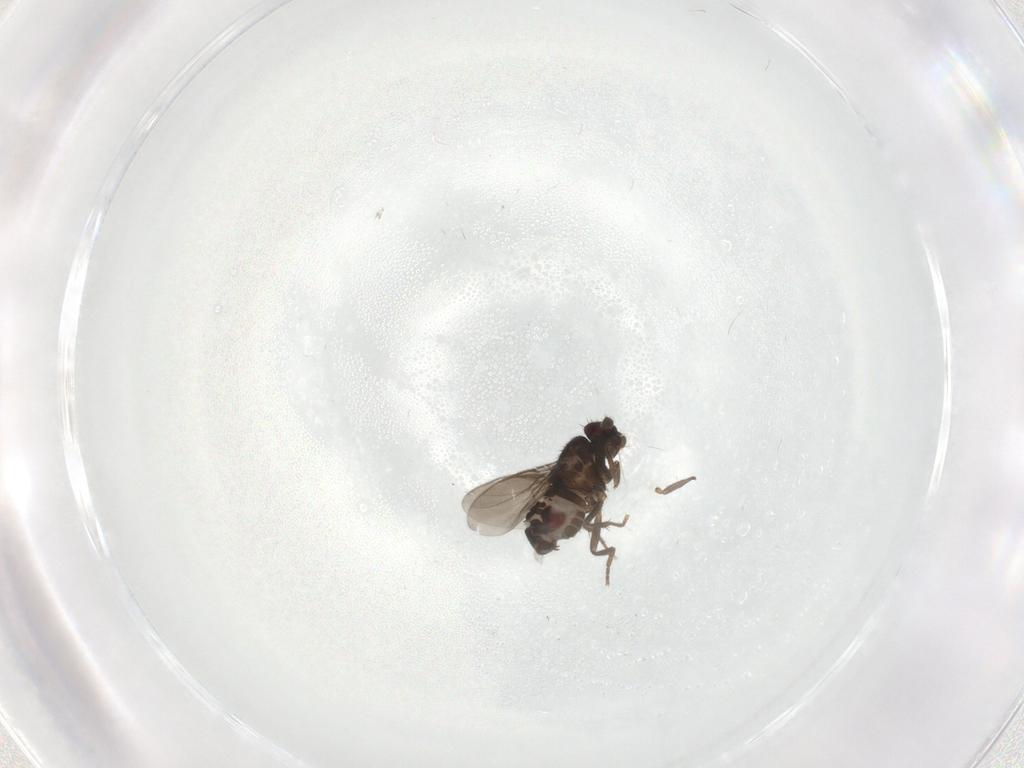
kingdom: Animalia
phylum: Arthropoda
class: Insecta
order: Diptera
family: Sphaeroceridae
